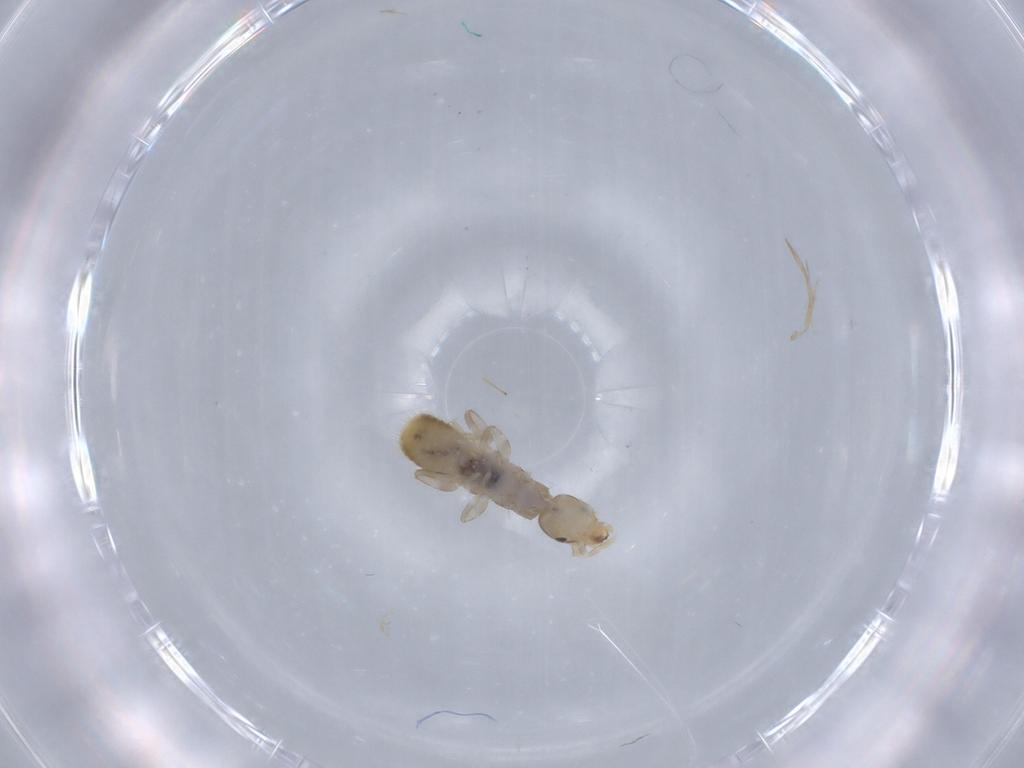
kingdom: Animalia
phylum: Arthropoda
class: Insecta
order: Dermaptera
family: Forficulidae
